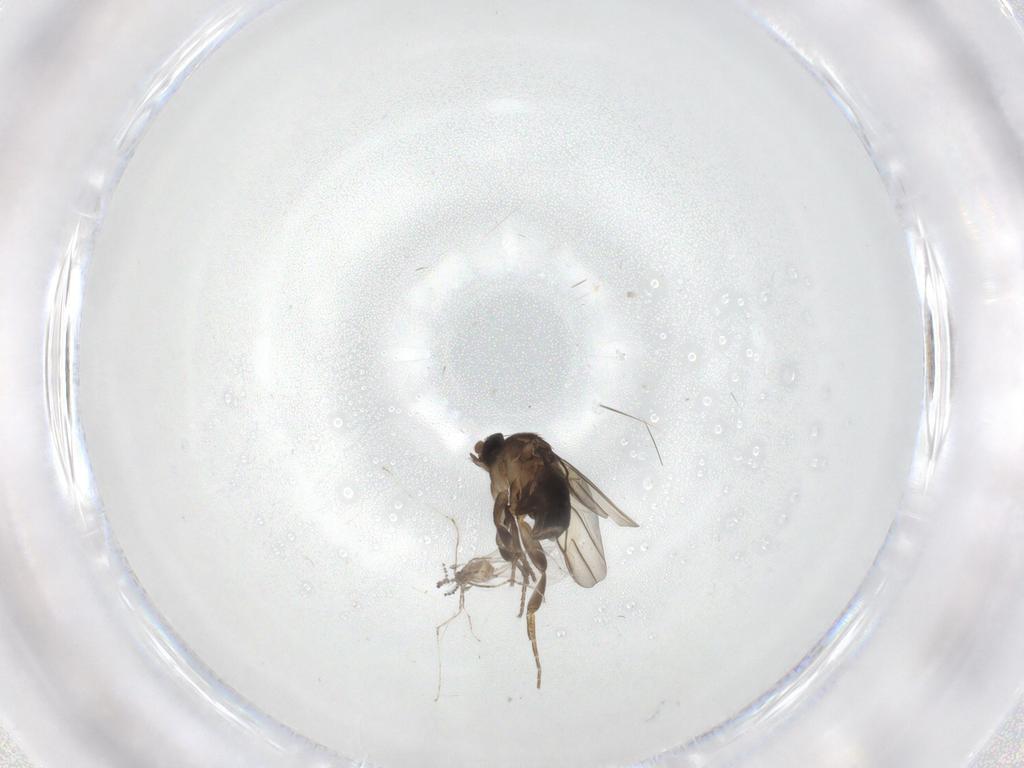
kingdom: Animalia
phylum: Arthropoda
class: Insecta
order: Diptera
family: Phoridae
